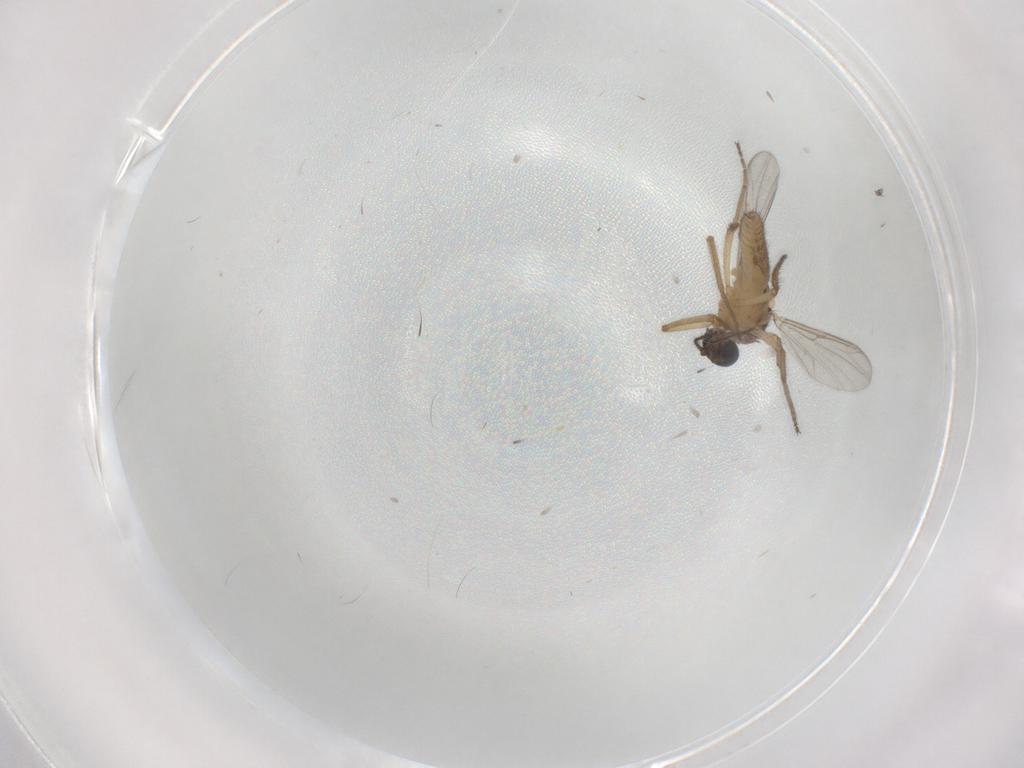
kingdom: Animalia
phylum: Arthropoda
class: Insecta
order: Diptera
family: Ceratopogonidae
